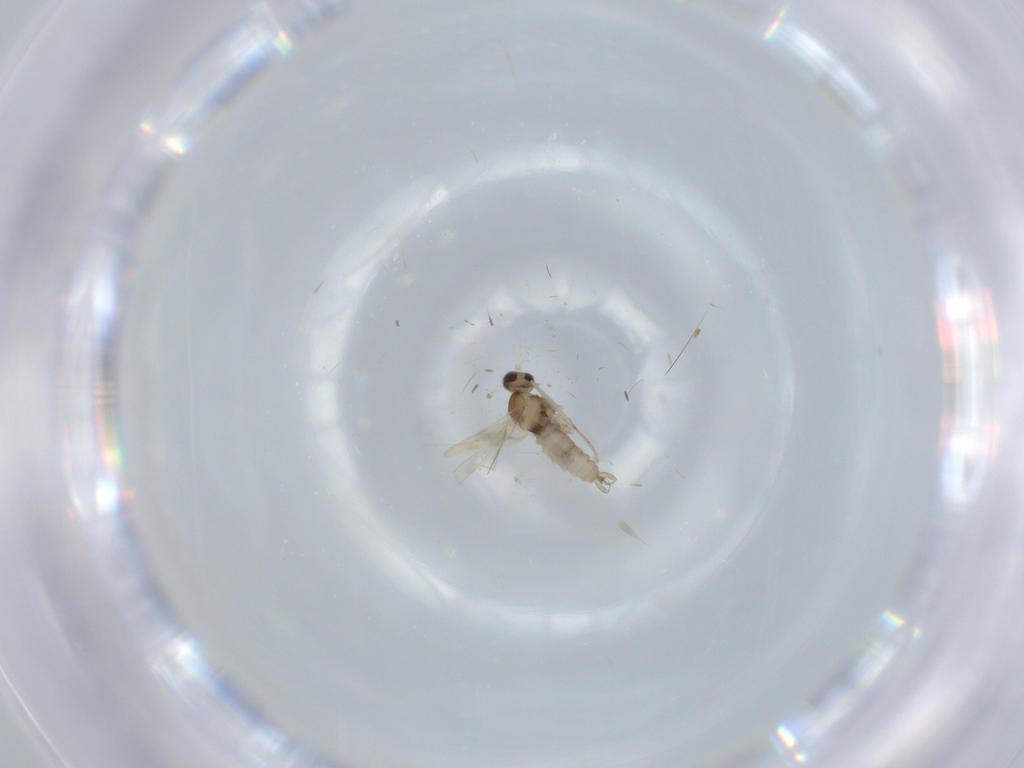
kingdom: Animalia
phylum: Arthropoda
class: Insecta
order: Diptera
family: Cecidomyiidae
